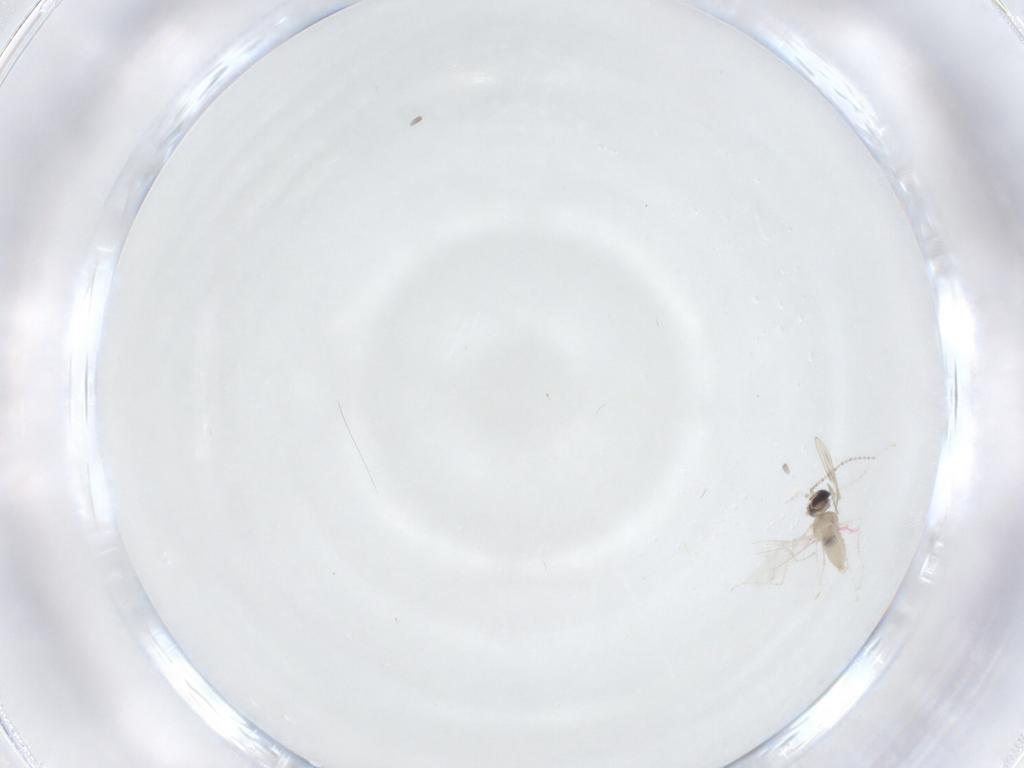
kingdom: Animalia
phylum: Arthropoda
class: Insecta
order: Diptera
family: Cecidomyiidae
